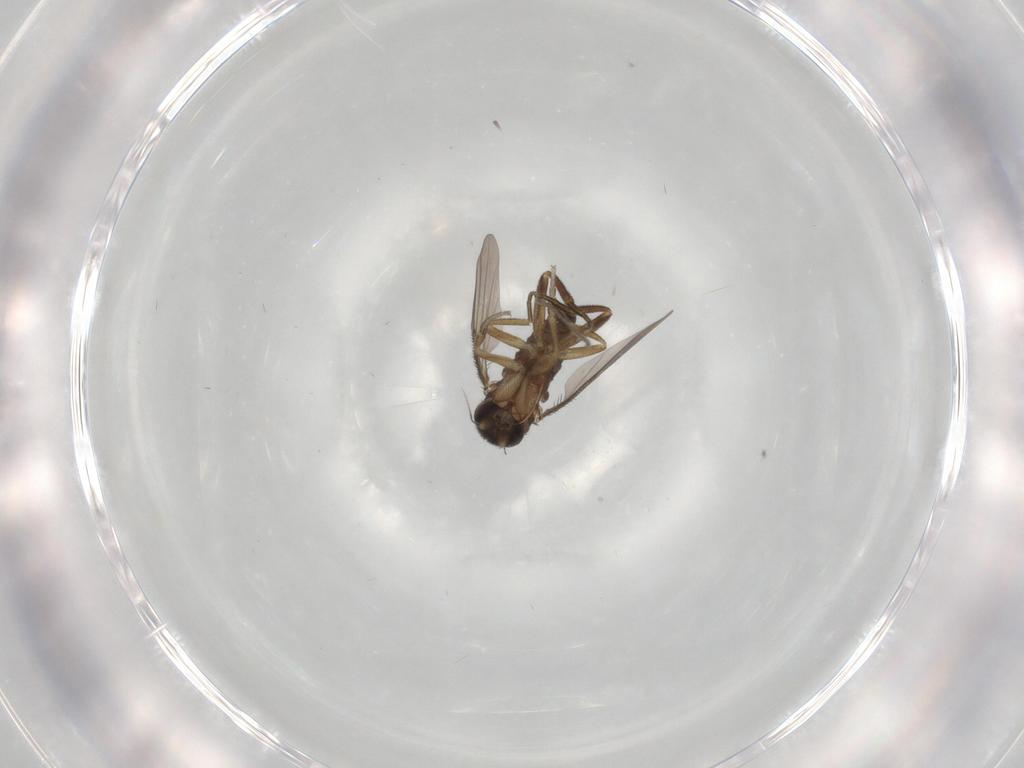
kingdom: Animalia
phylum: Arthropoda
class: Insecta
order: Diptera
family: Phoridae
